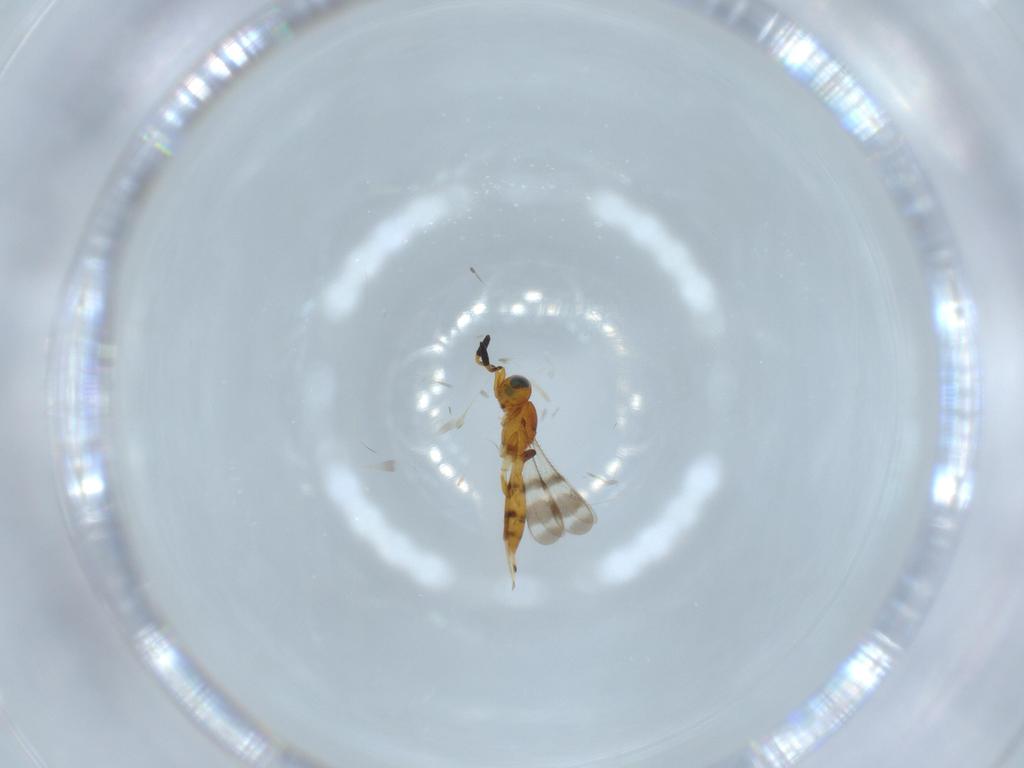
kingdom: Animalia
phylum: Arthropoda
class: Insecta
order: Hymenoptera
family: Scelionidae
